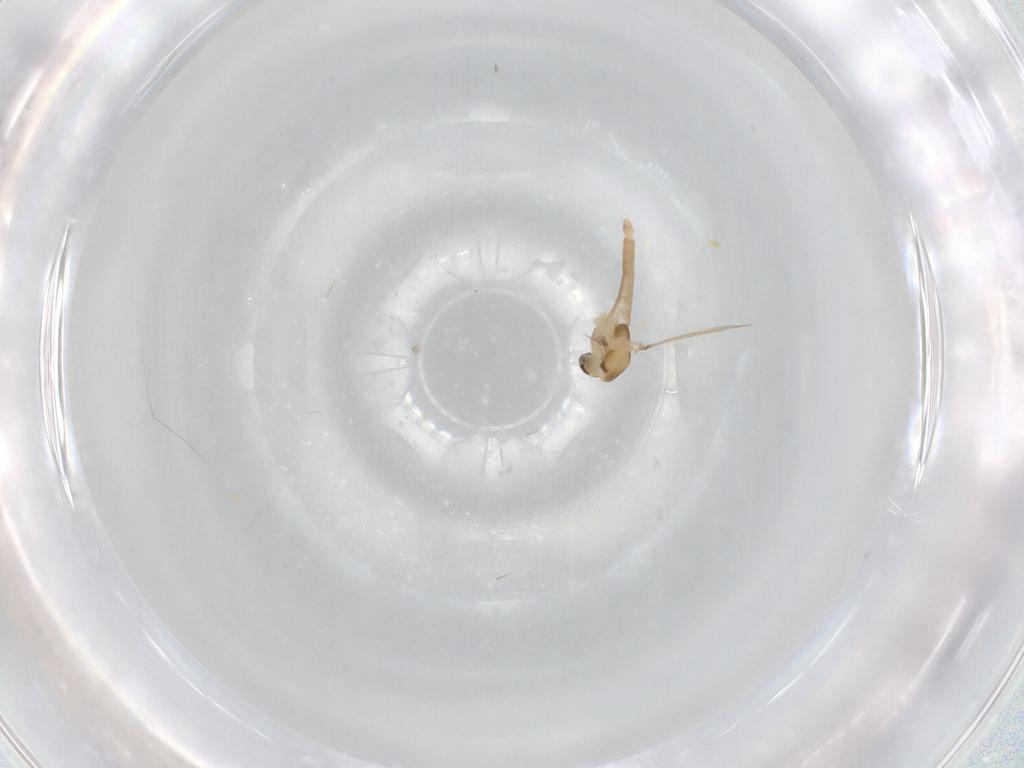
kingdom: Animalia
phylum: Arthropoda
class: Insecta
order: Diptera
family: Chironomidae
